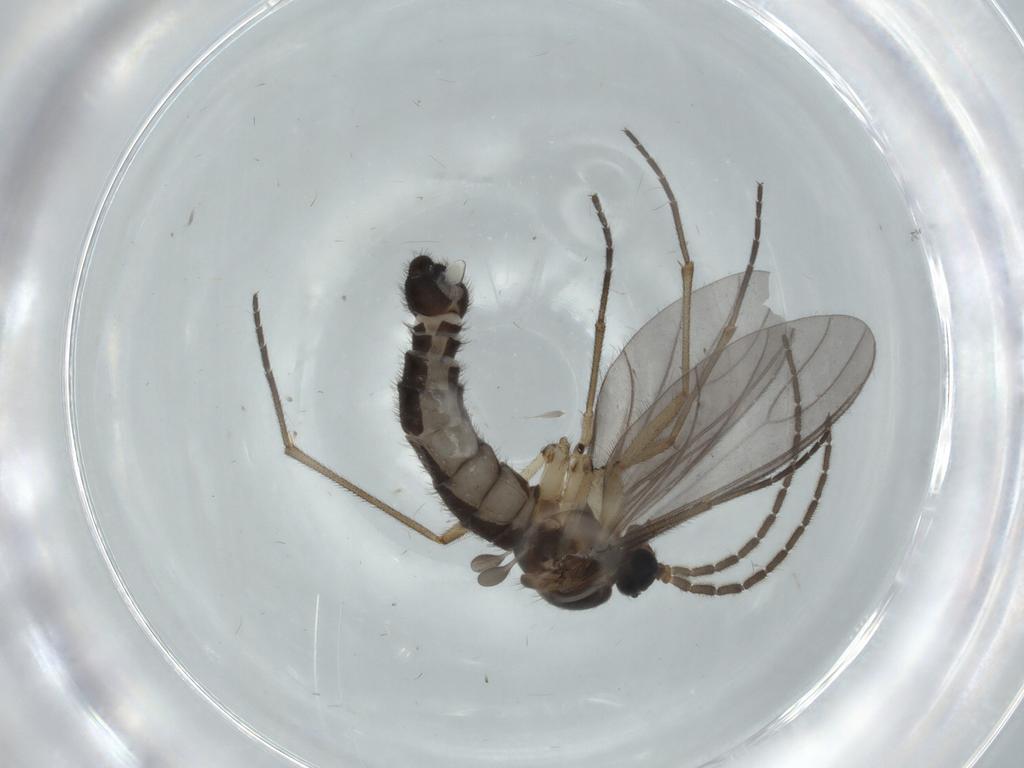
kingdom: Animalia
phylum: Arthropoda
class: Insecta
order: Diptera
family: Sciaridae
